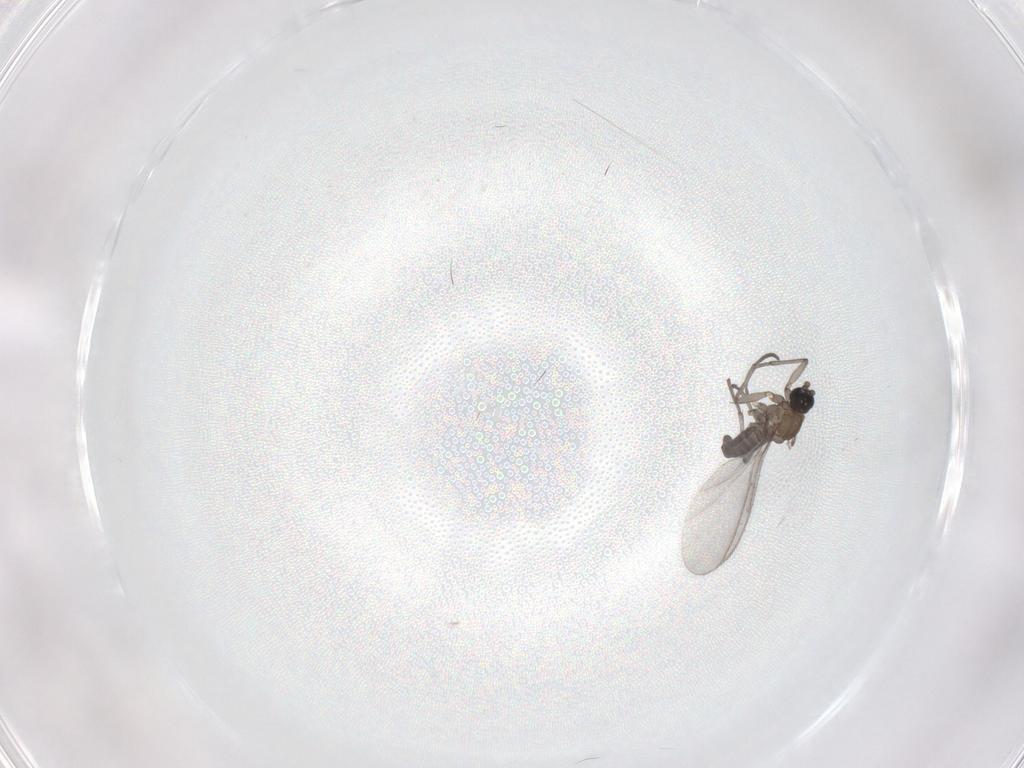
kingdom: Animalia
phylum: Arthropoda
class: Insecta
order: Diptera
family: Sciaridae
